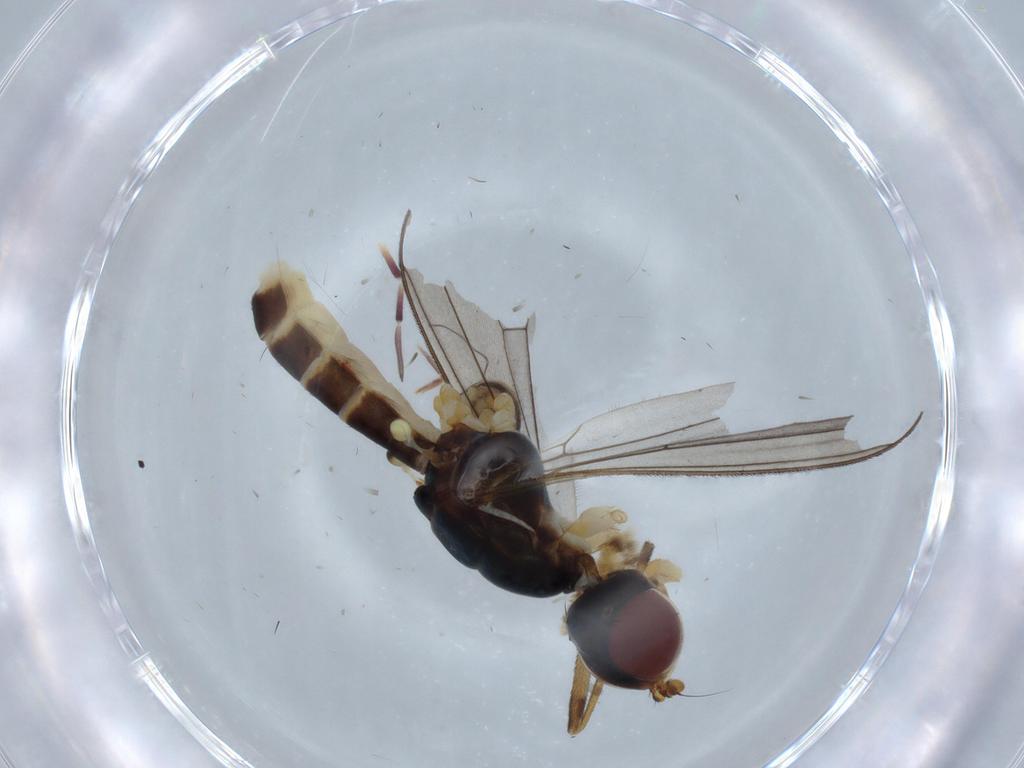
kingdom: Animalia
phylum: Arthropoda
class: Insecta
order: Diptera
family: Micropezidae
